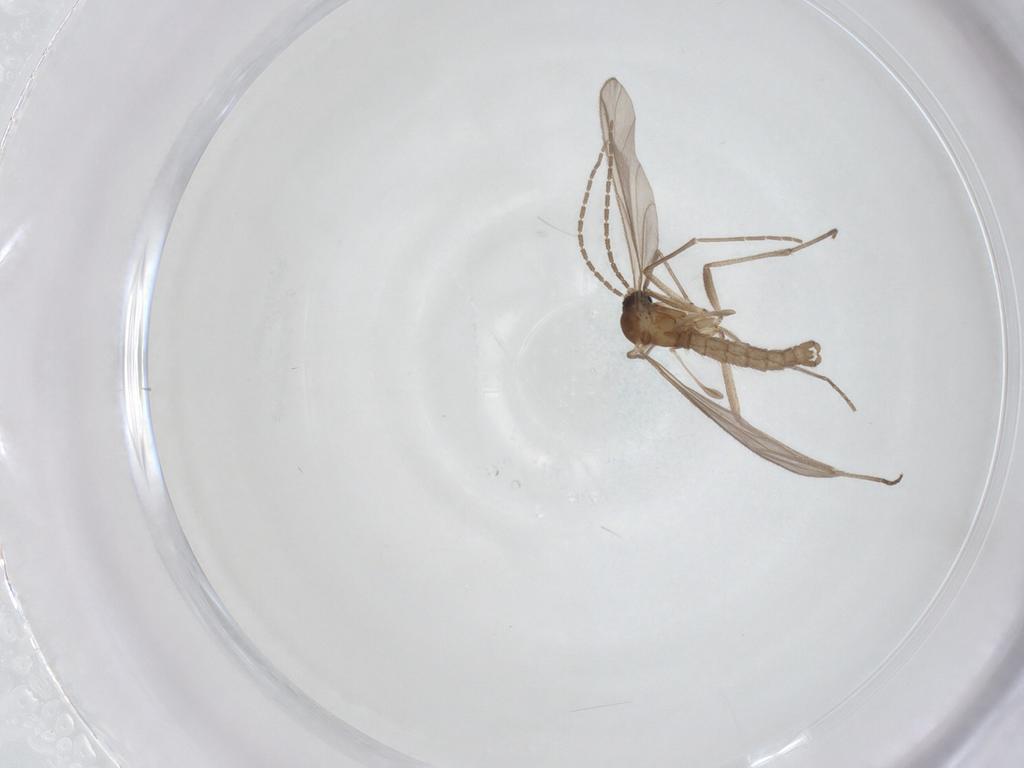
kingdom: Animalia
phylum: Arthropoda
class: Insecta
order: Diptera
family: Sciaridae
